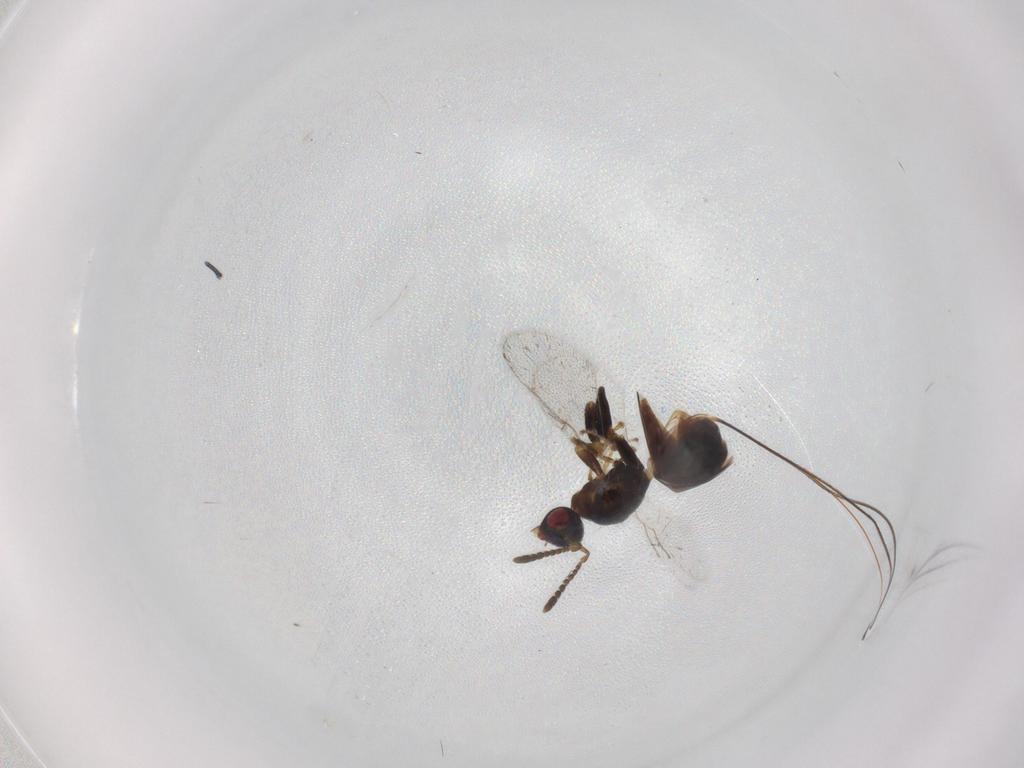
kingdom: Animalia
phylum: Arthropoda
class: Insecta
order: Hymenoptera
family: Torymidae
